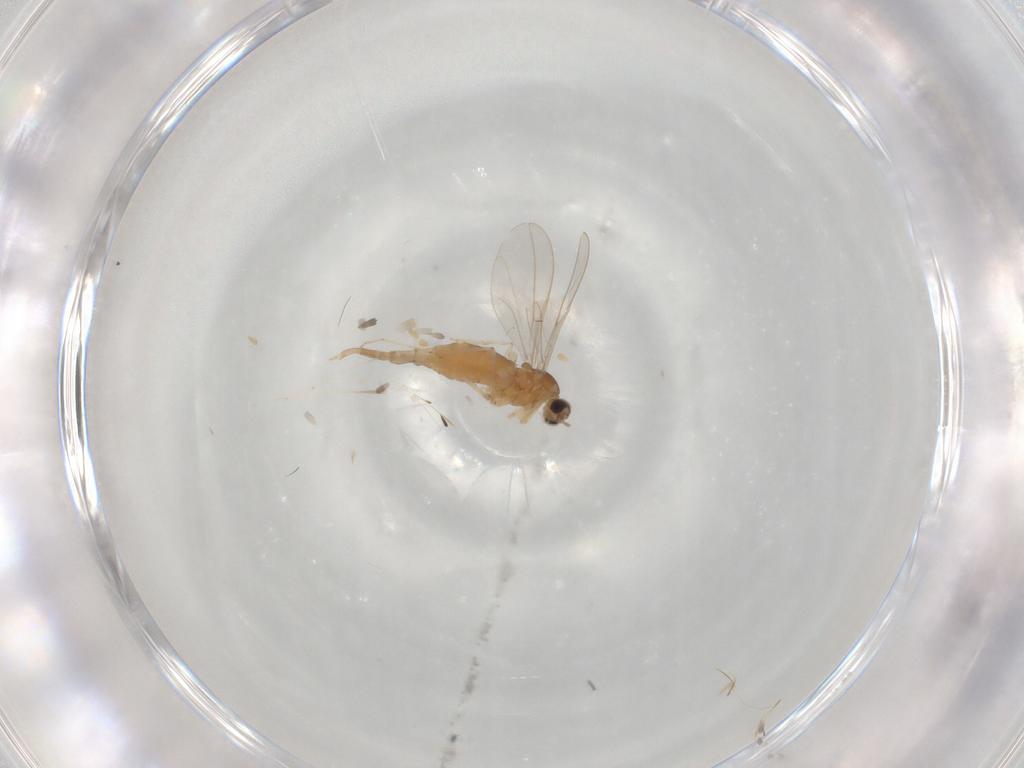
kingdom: Animalia
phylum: Arthropoda
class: Insecta
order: Diptera
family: Cecidomyiidae
